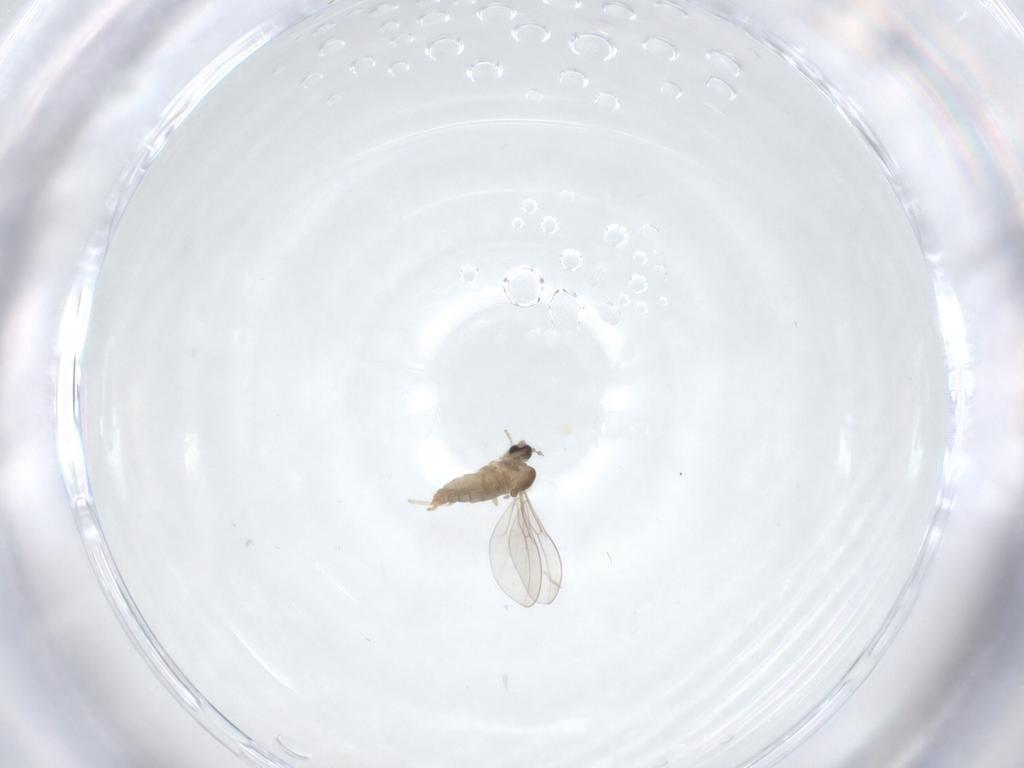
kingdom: Animalia
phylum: Arthropoda
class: Insecta
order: Diptera
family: Cecidomyiidae
